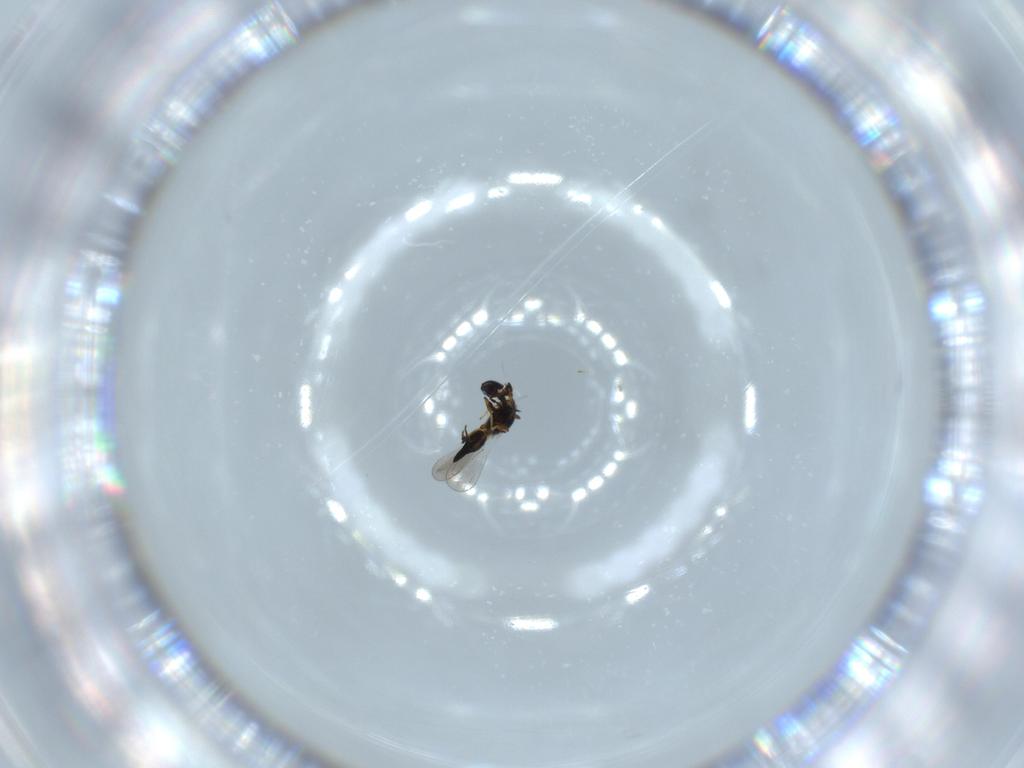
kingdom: Animalia
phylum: Arthropoda
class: Insecta
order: Hymenoptera
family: Platygastridae
